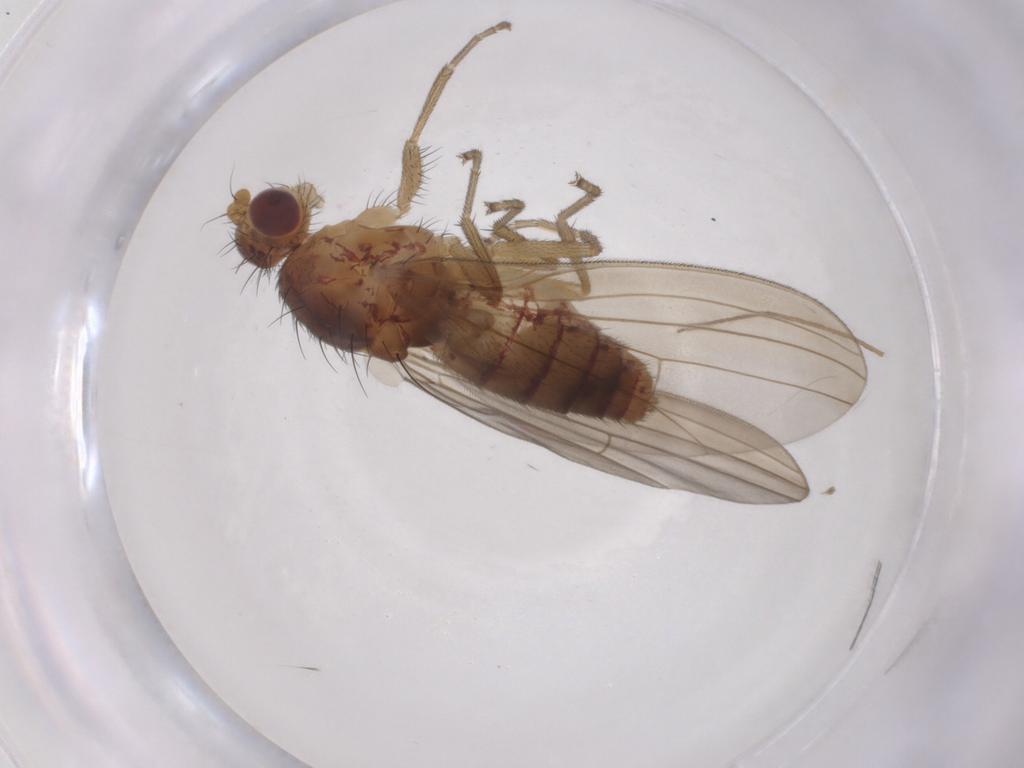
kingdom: Animalia
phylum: Arthropoda
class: Insecta
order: Diptera
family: Natalimyzidae
